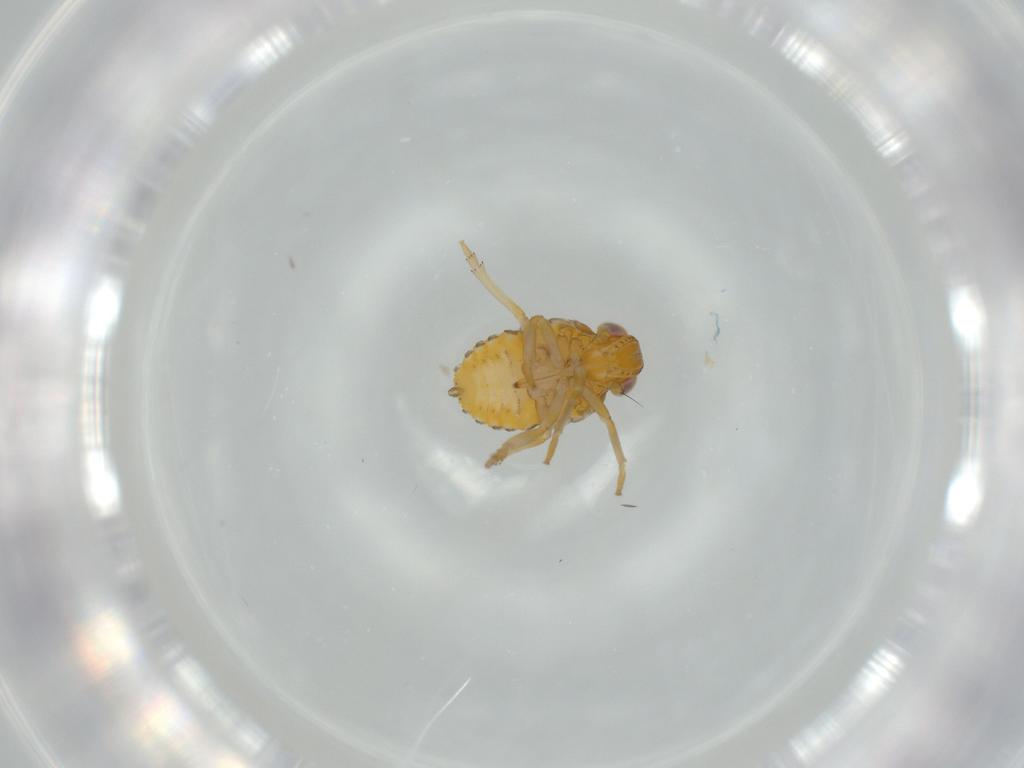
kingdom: Animalia
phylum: Arthropoda
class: Insecta
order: Hemiptera
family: Issidae
